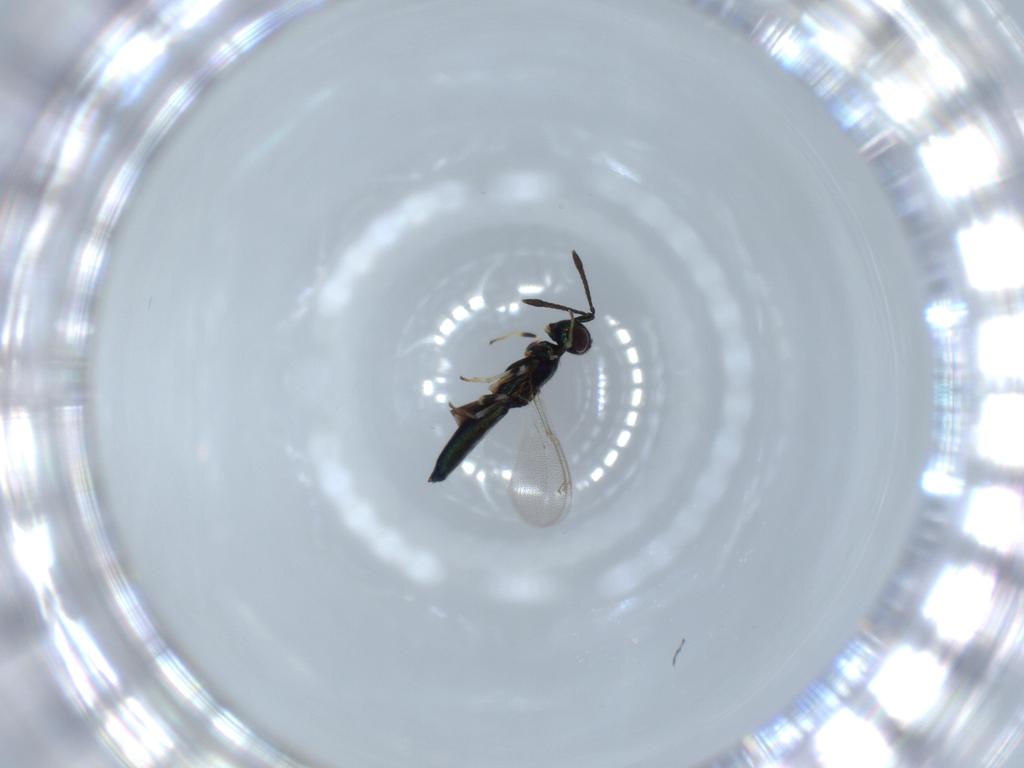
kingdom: Animalia
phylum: Arthropoda
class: Insecta
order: Hymenoptera
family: Eupelmidae
